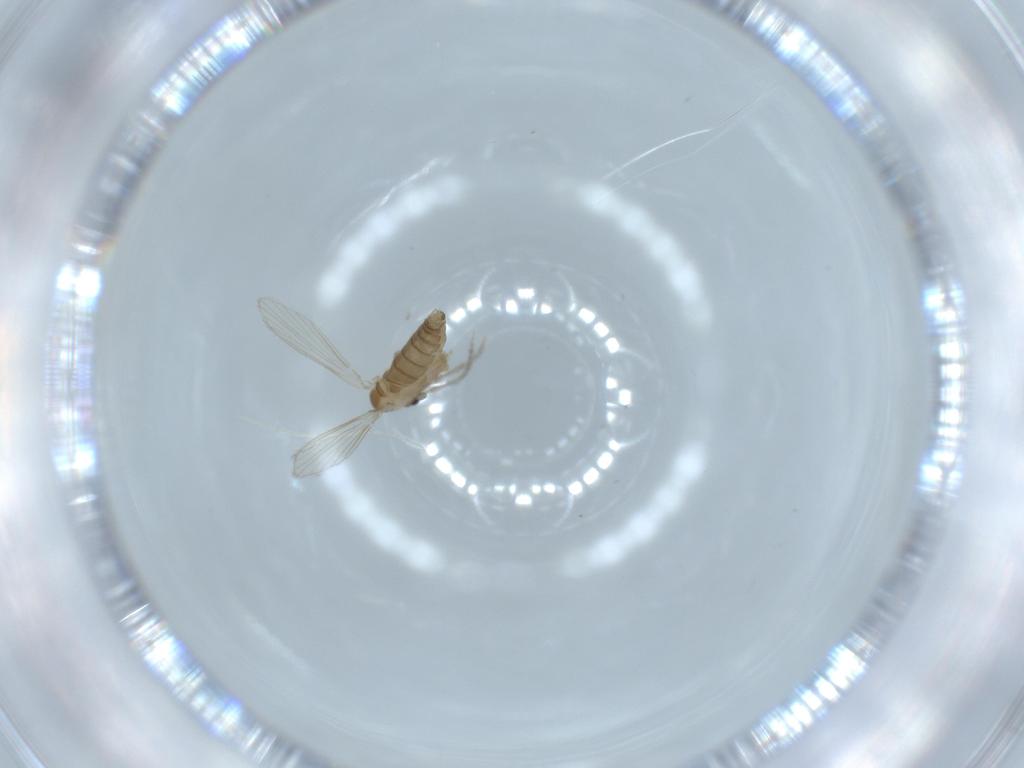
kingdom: Animalia
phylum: Arthropoda
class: Insecta
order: Diptera
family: Psychodidae
